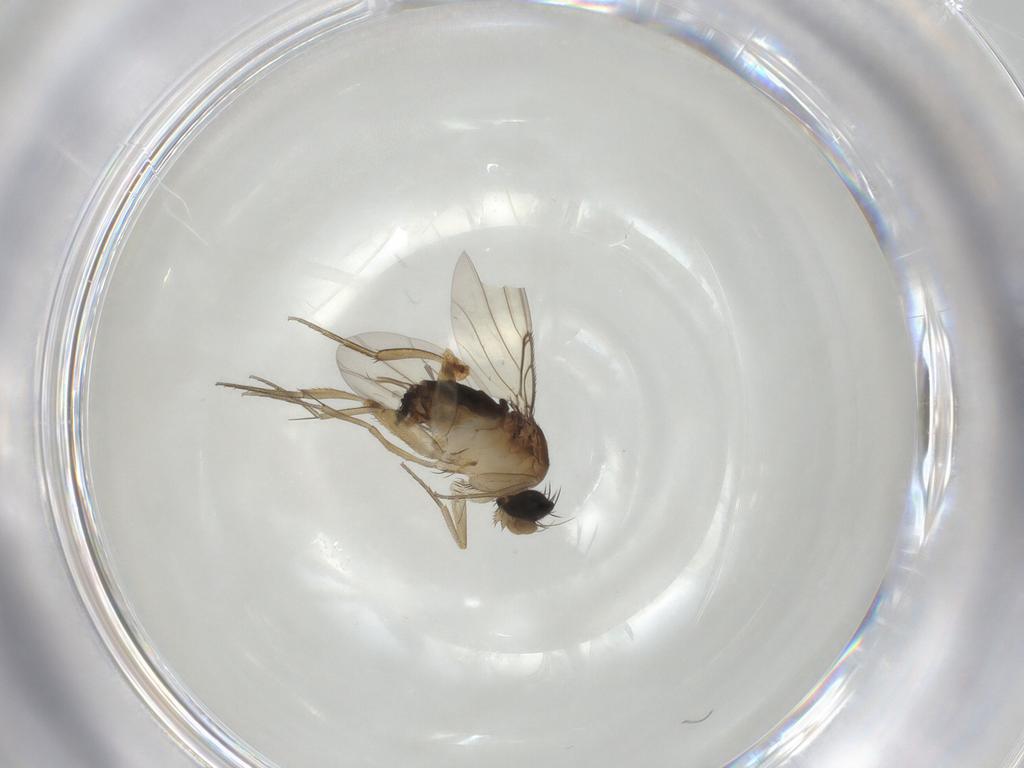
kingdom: Animalia
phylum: Arthropoda
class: Insecta
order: Diptera
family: Phoridae
